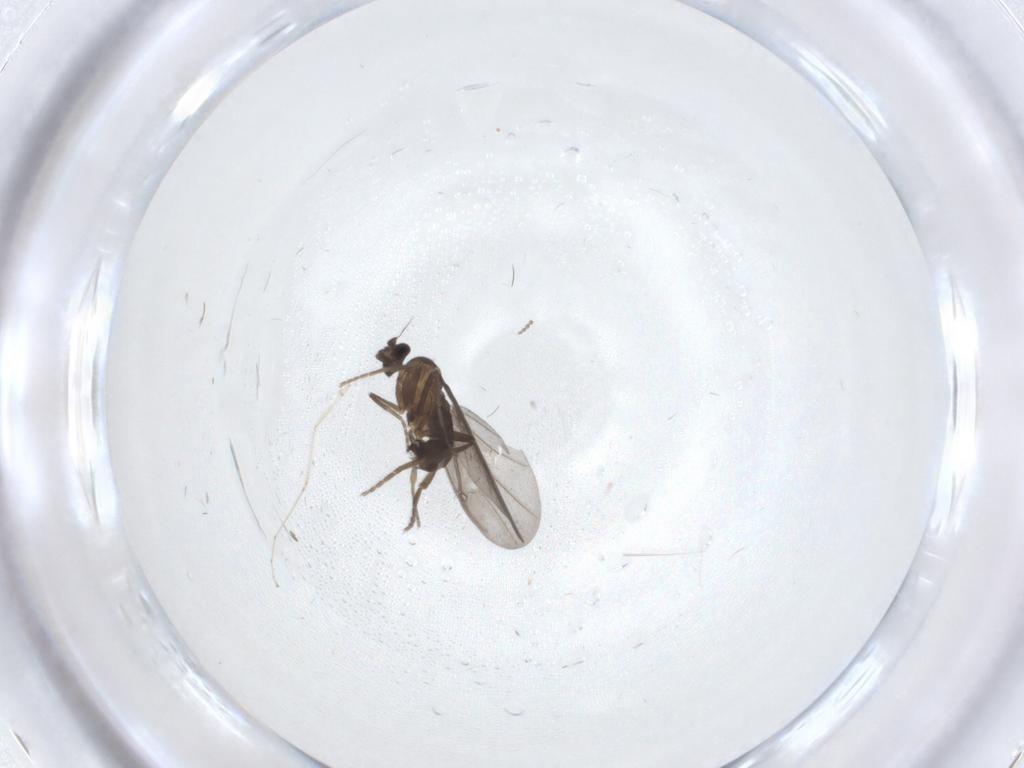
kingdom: Animalia
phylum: Arthropoda
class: Insecta
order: Diptera
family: Phoridae
